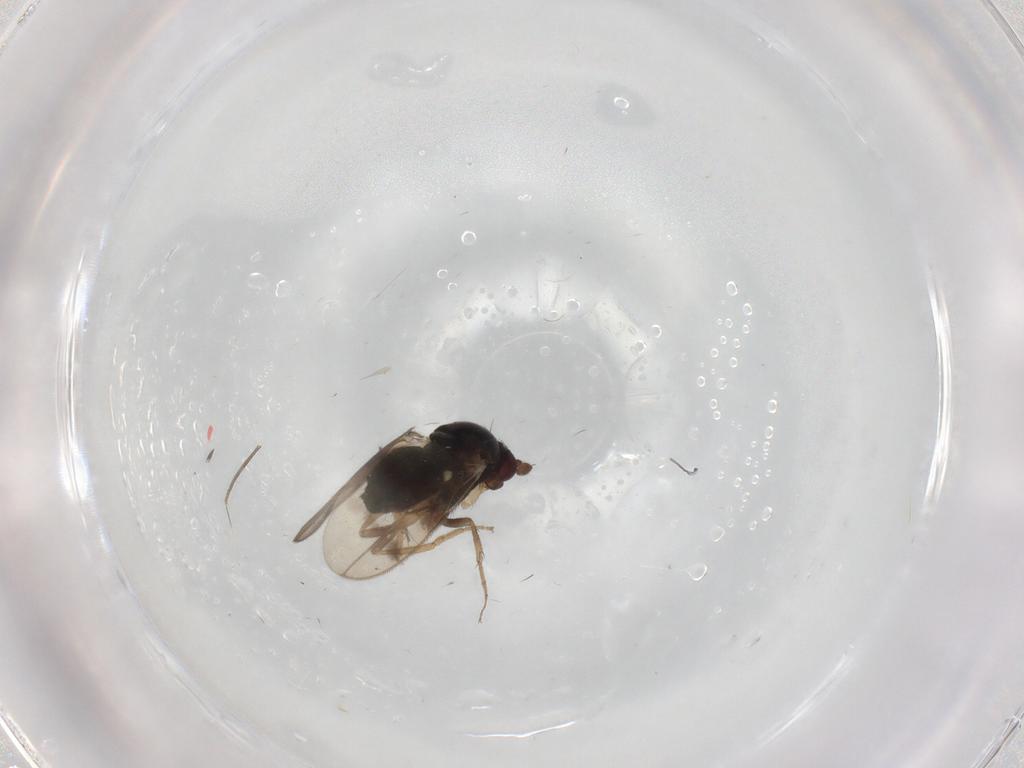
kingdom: Animalia
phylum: Arthropoda
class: Insecta
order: Diptera
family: Sphaeroceridae
